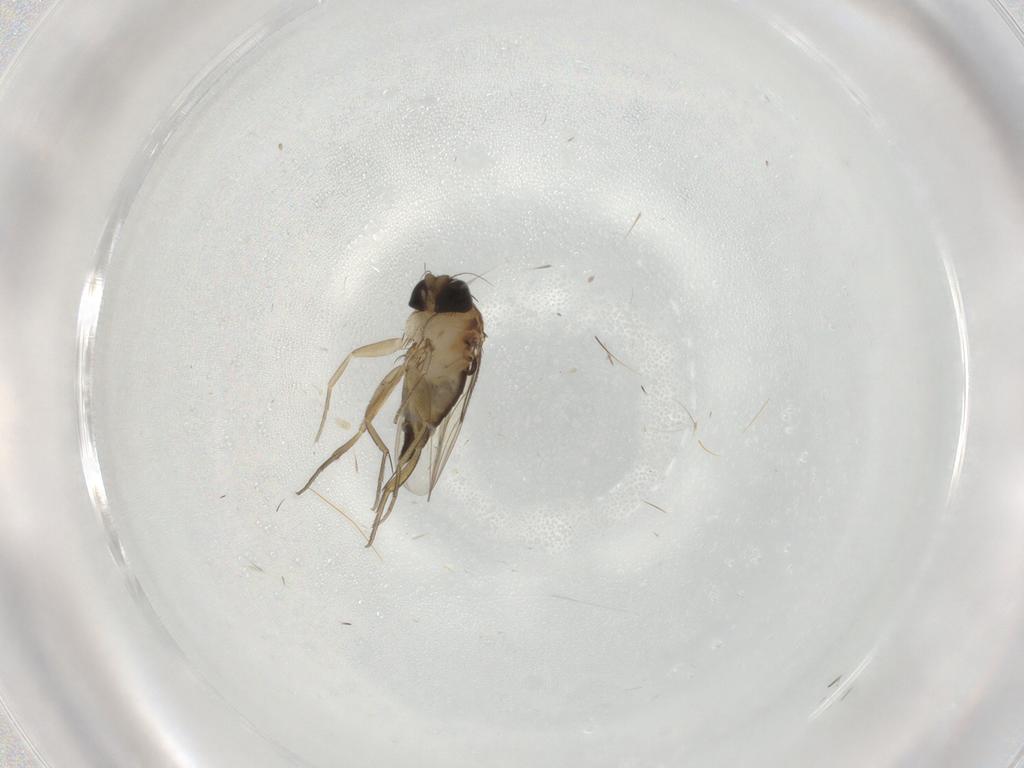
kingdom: Animalia
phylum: Arthropoda
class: Insecta
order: Diptera
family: Phoridae
